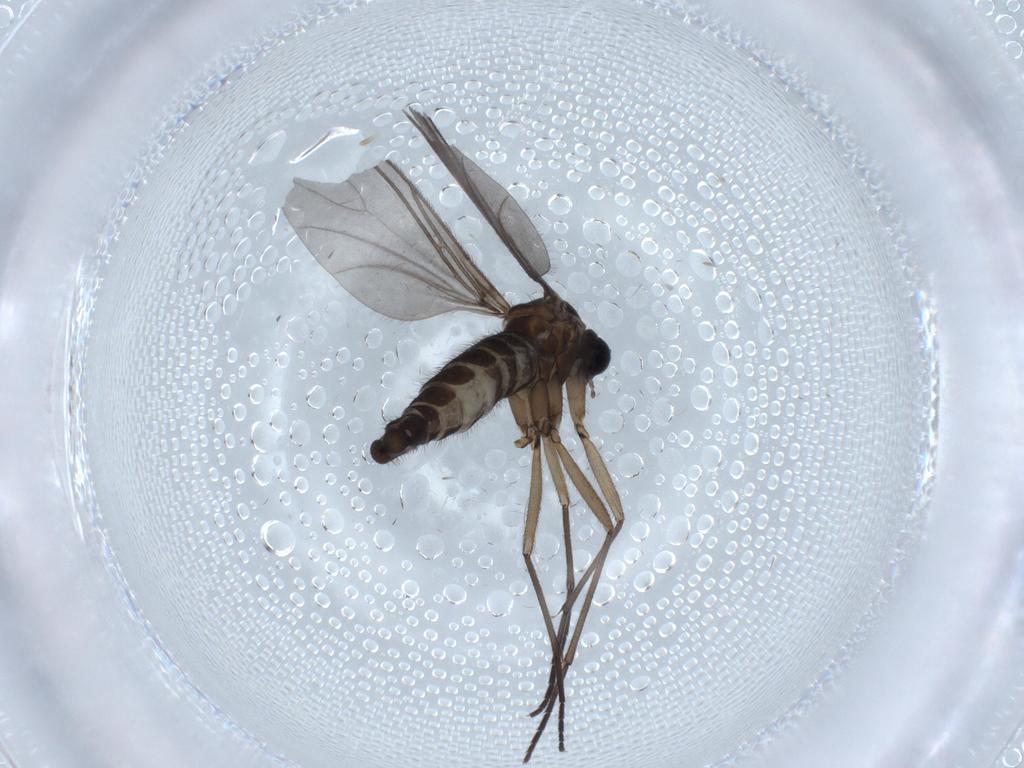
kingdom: Animalia
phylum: Arthropoda
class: Insecta
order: Diptera
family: Sciaridae
